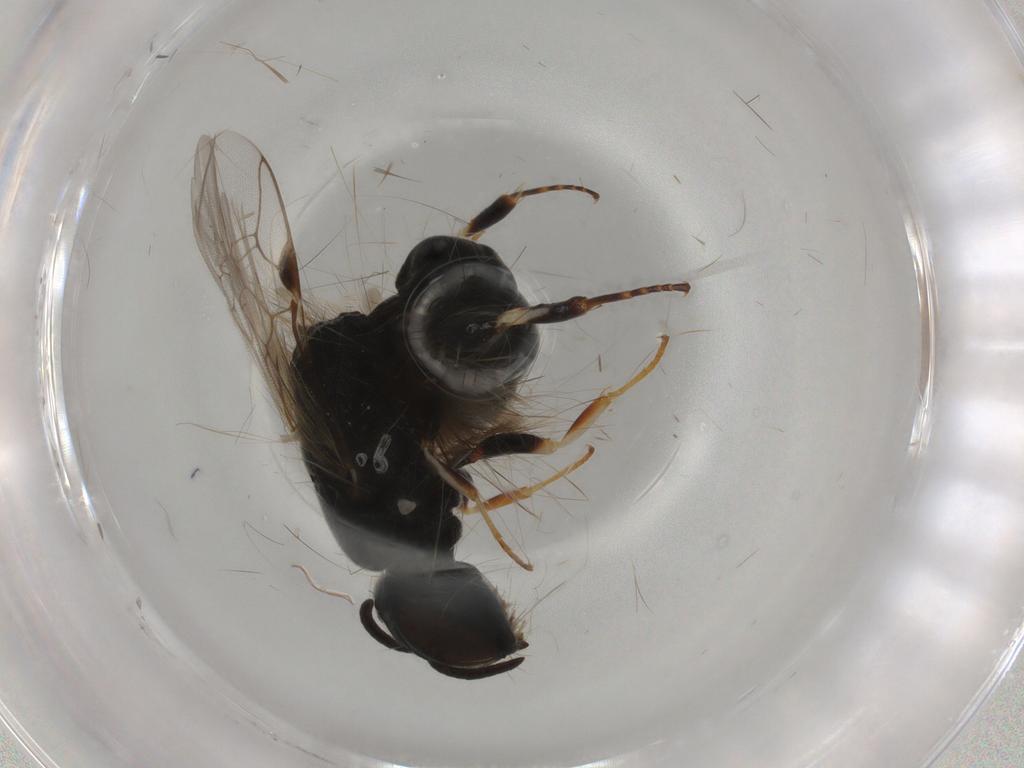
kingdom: Animalia
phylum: Arthropoda
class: Insecta
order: Hymenoptera
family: Pemphredonidae
